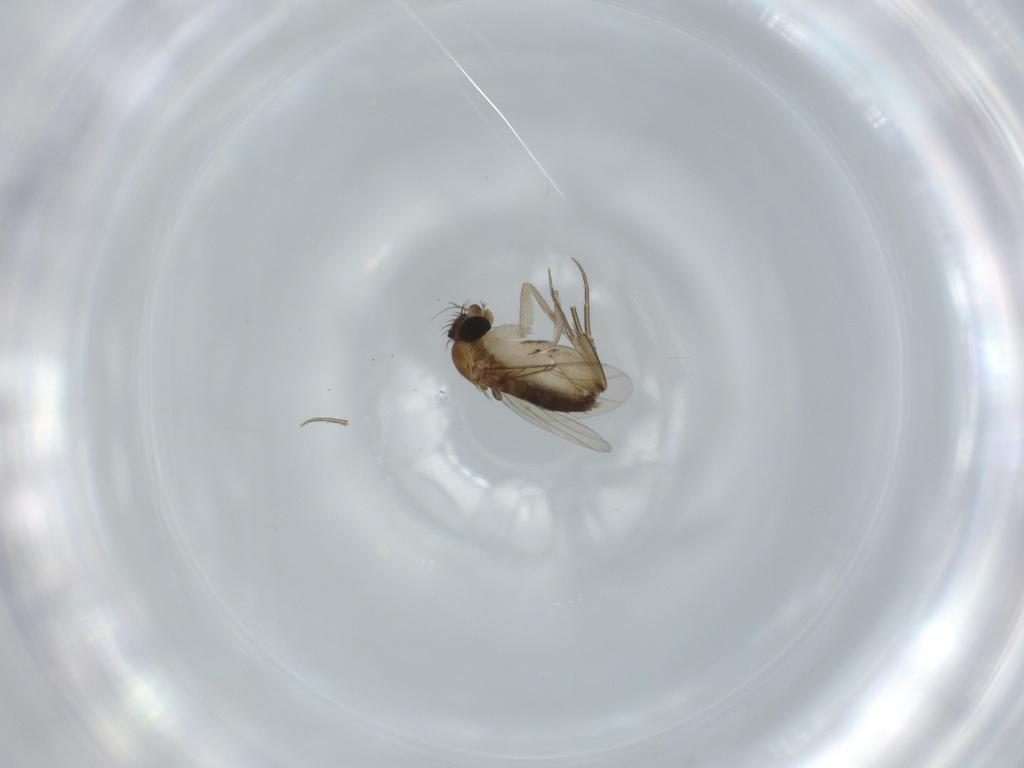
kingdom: Animalia
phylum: Arthropoda
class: Insecta
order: Diptera
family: Phoridae
